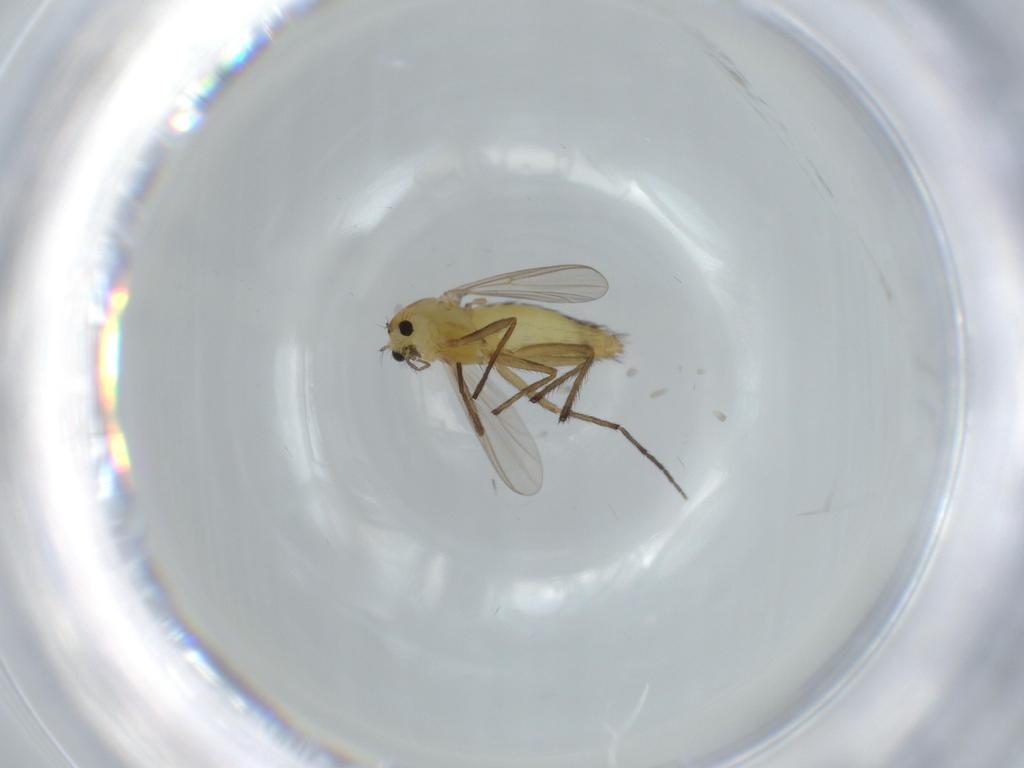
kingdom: Animalia
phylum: Arthropoda
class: Insecta
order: Diptera
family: Chironomidae
